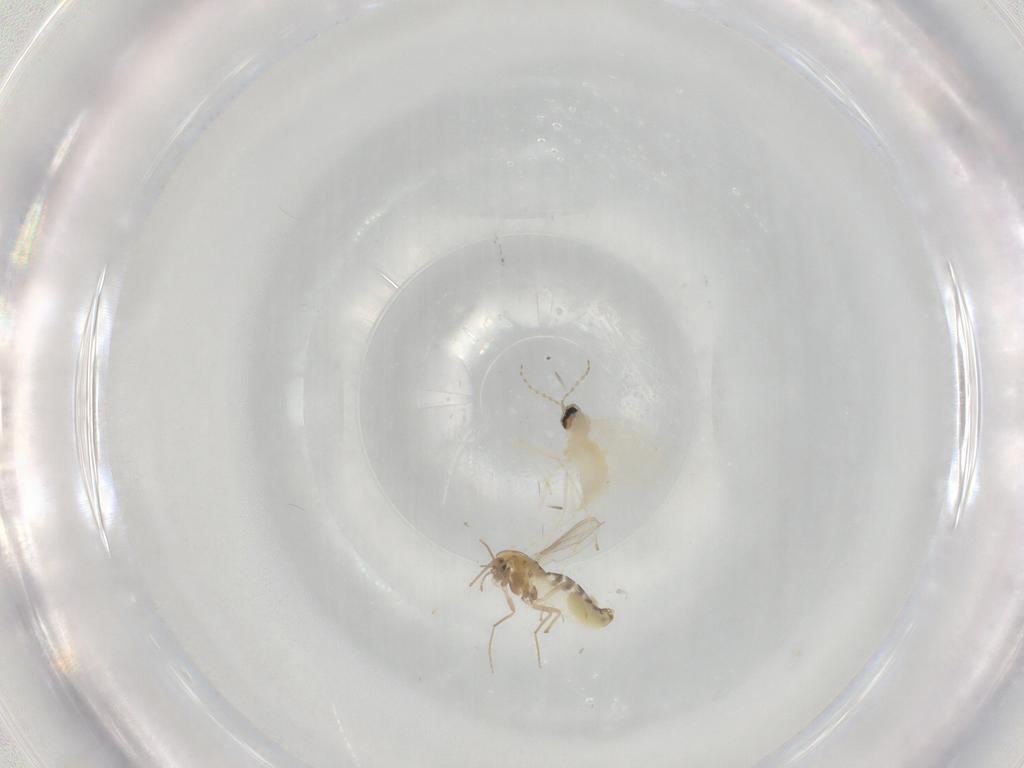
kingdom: Animalia
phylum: Arthropoda
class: Insecta
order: Diptera
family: Chironomidae
